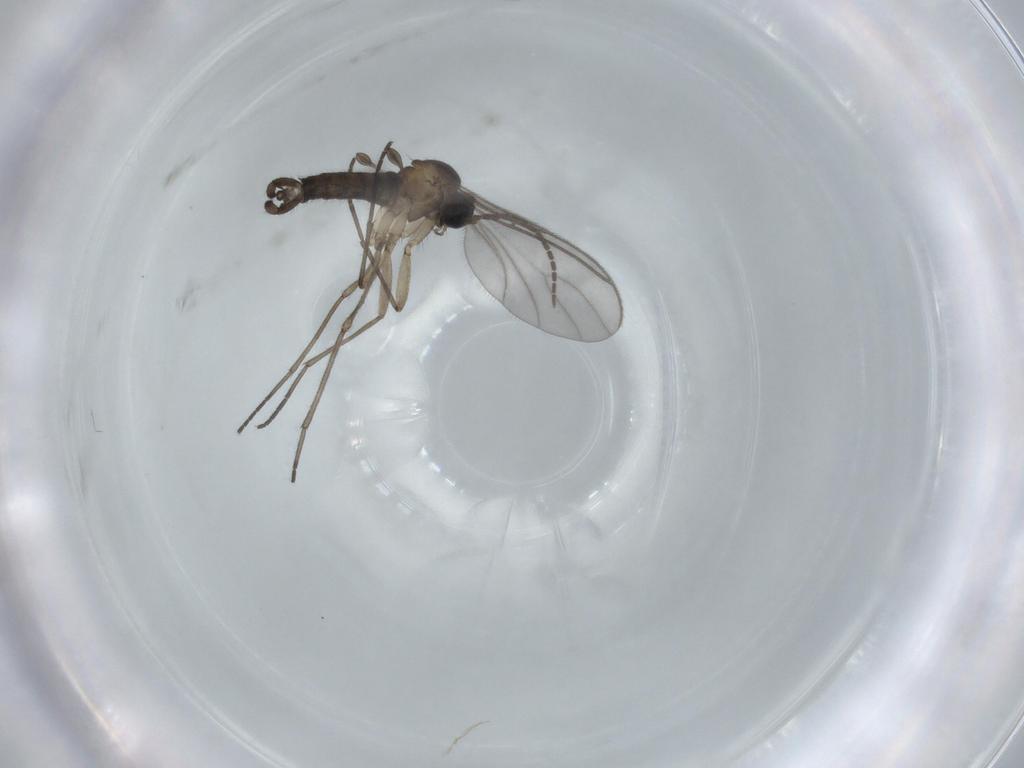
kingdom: Animalia
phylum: Arthropoda
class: Insecta
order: Diptera
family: Sciaridae
